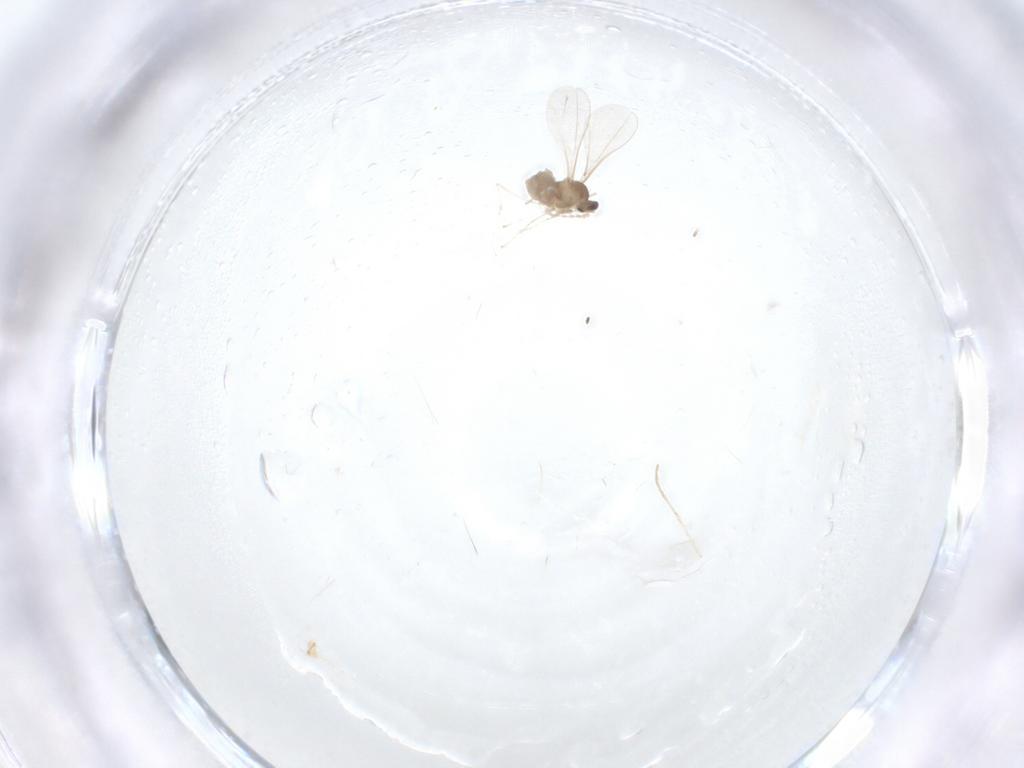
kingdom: Animalia
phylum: Arthropoda
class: Insecta
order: Diptera
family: Cecidomyiidae
